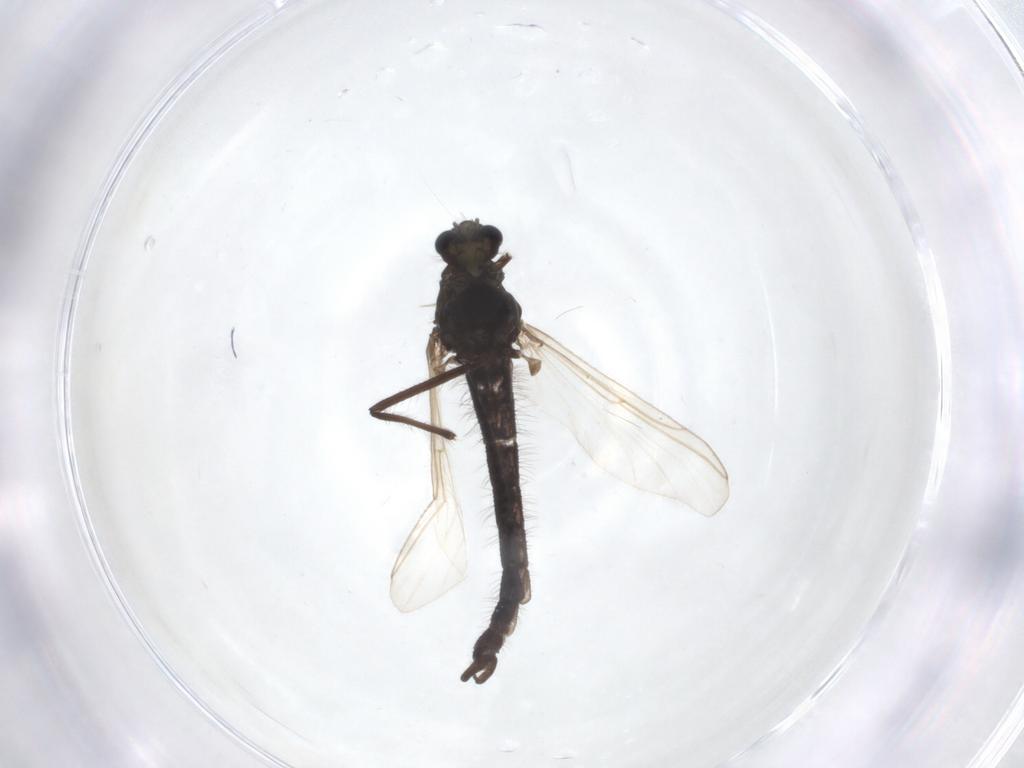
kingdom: Animalia
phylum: Arthropoda
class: Insecta
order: Diptera
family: Chironomidae
